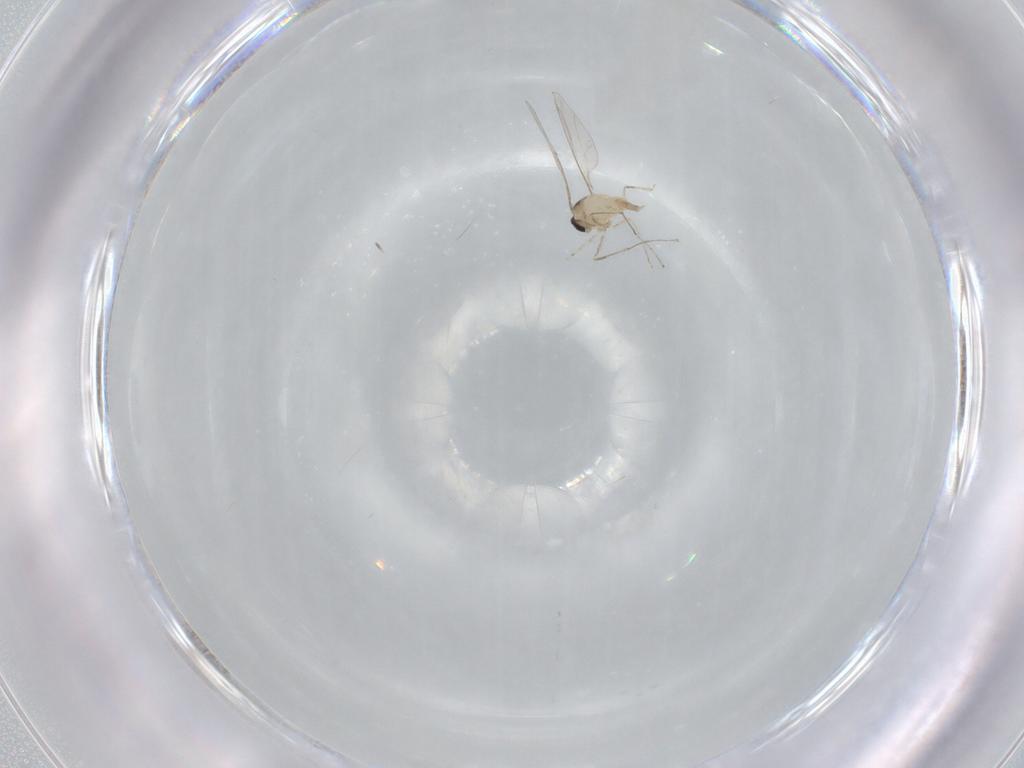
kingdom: Animalia
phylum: Arthropoda
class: Insecta
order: Diptera
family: Cecidomyiidae
